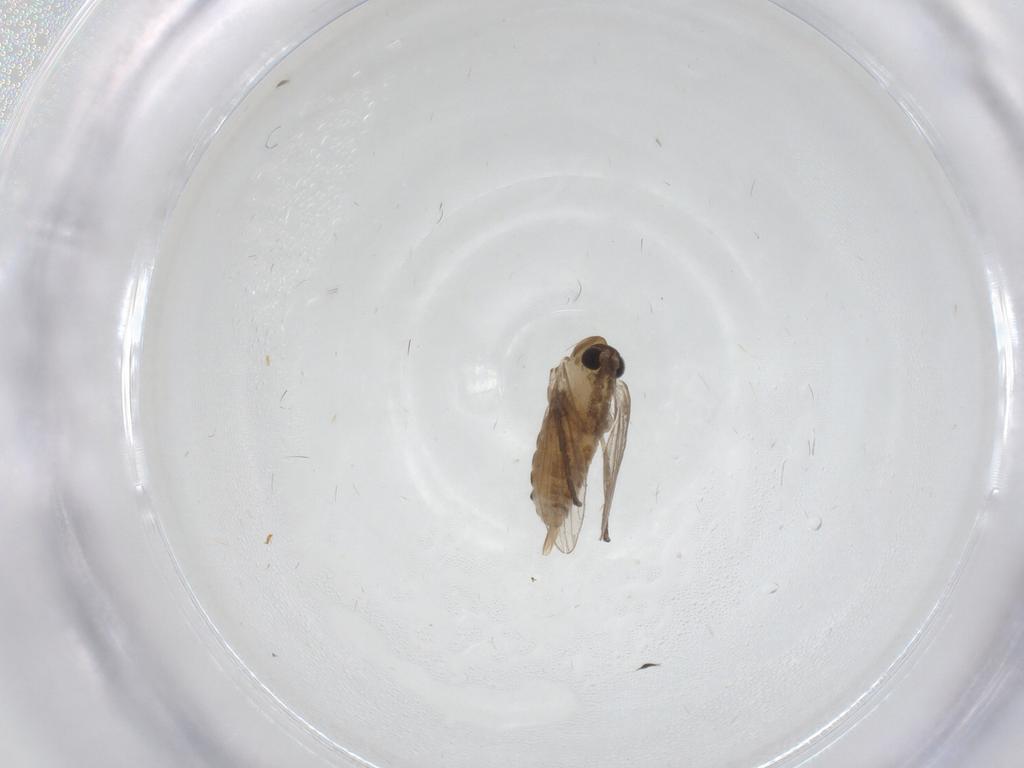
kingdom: Animalia
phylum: Arthropoda
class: Insecta
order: Diptera
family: Psychodidae
